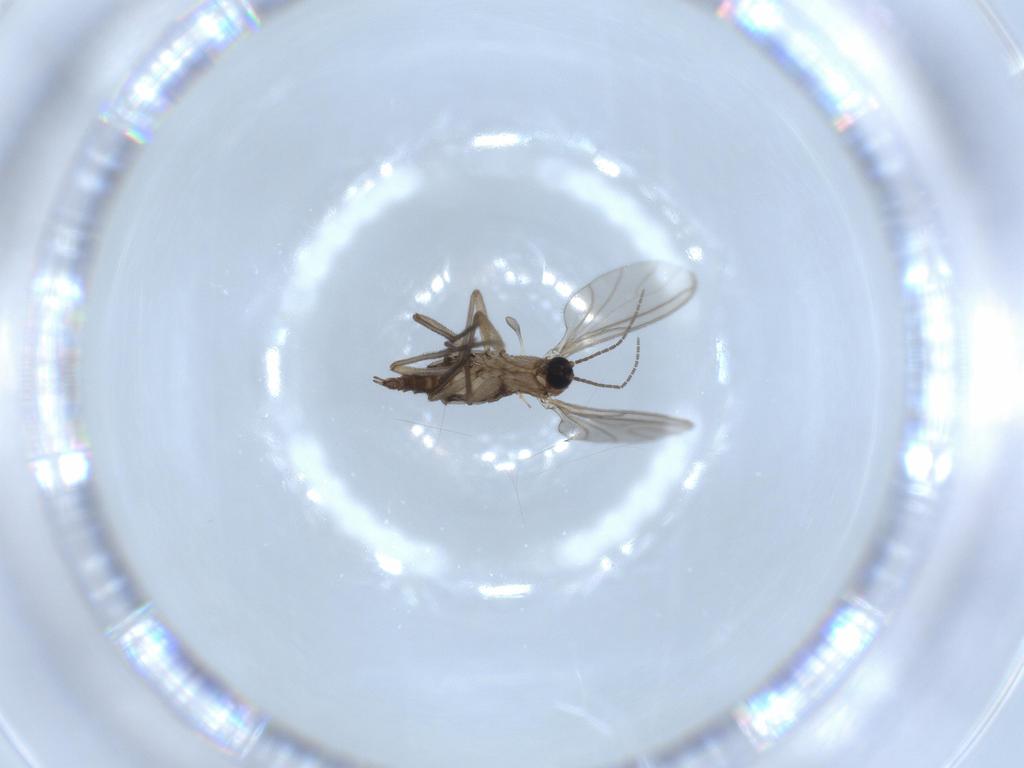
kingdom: Animalia
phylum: Arthropoda
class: Insecta
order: Diptera
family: Sciaridae
